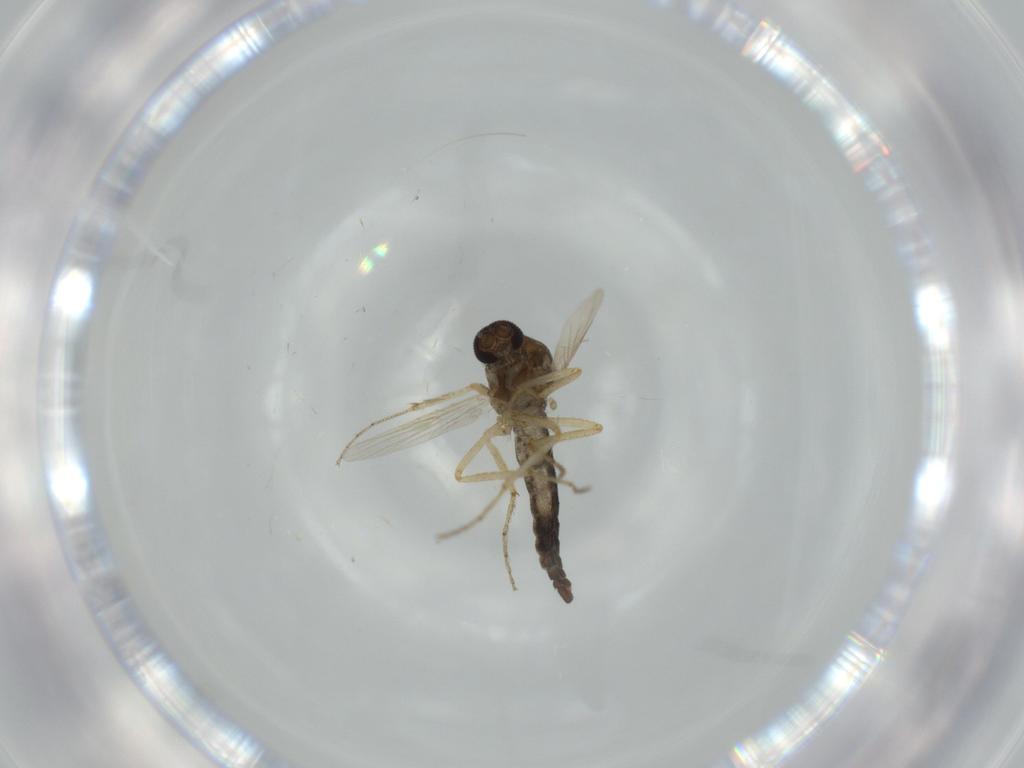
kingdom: Animalia
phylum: Arthropoda
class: Insecta
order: Diptera
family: Ceratopogonidae
